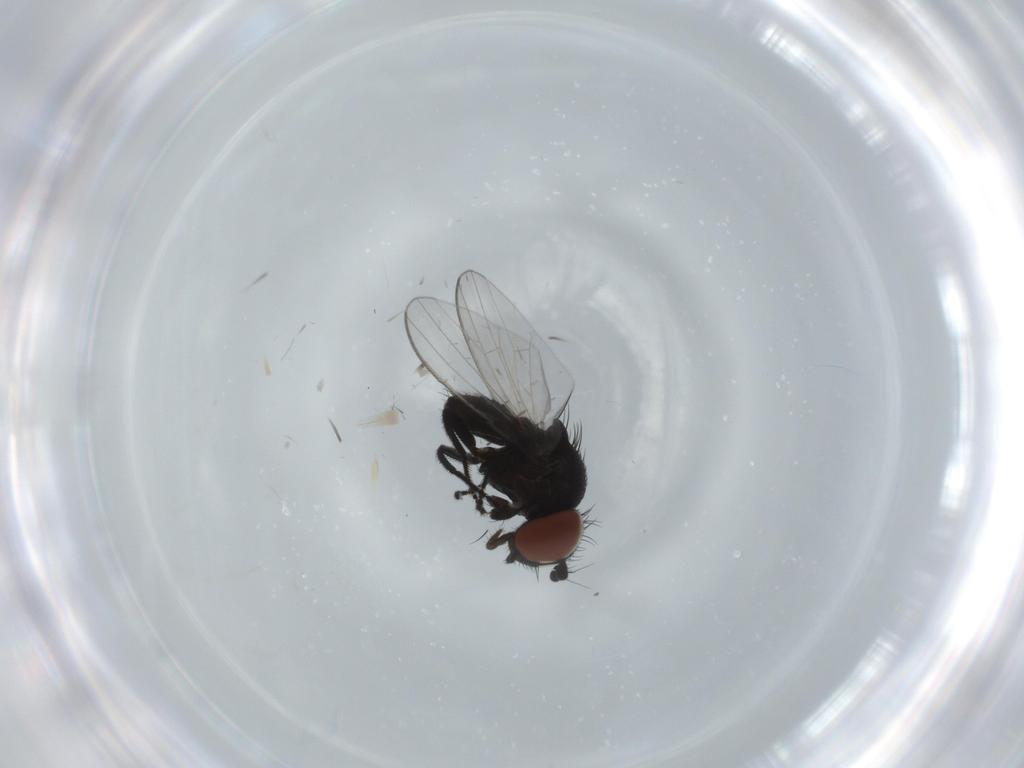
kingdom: Animalia
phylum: Arthropoda
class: Insecta
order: Diptera
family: Milichiidae
